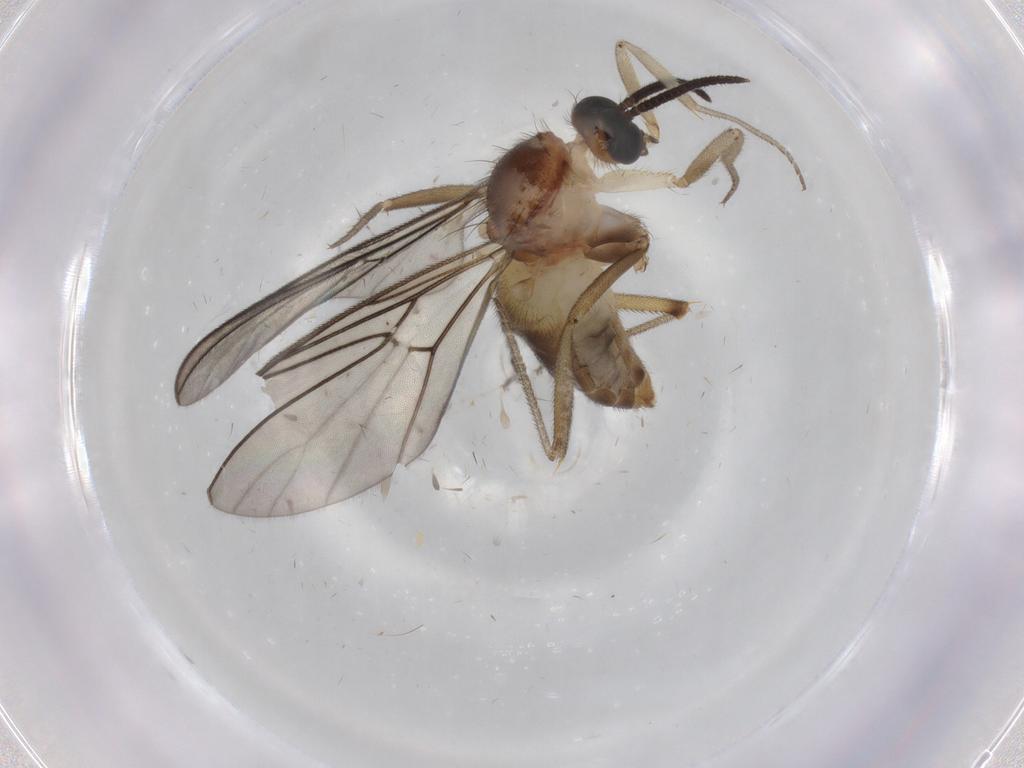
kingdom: Animalia
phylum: Arthropoda
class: Insecta
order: Diptera
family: Chironomidae
